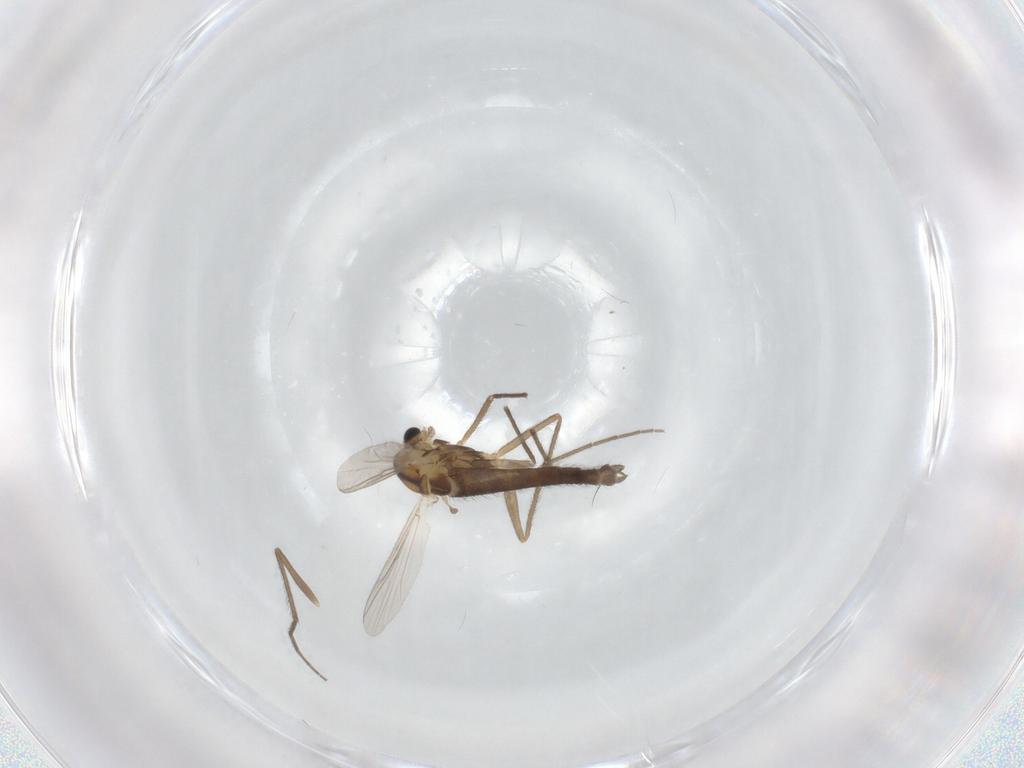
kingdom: Animalia
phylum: Arthropoda
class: Insecta
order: Diptera
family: Chironomidae
